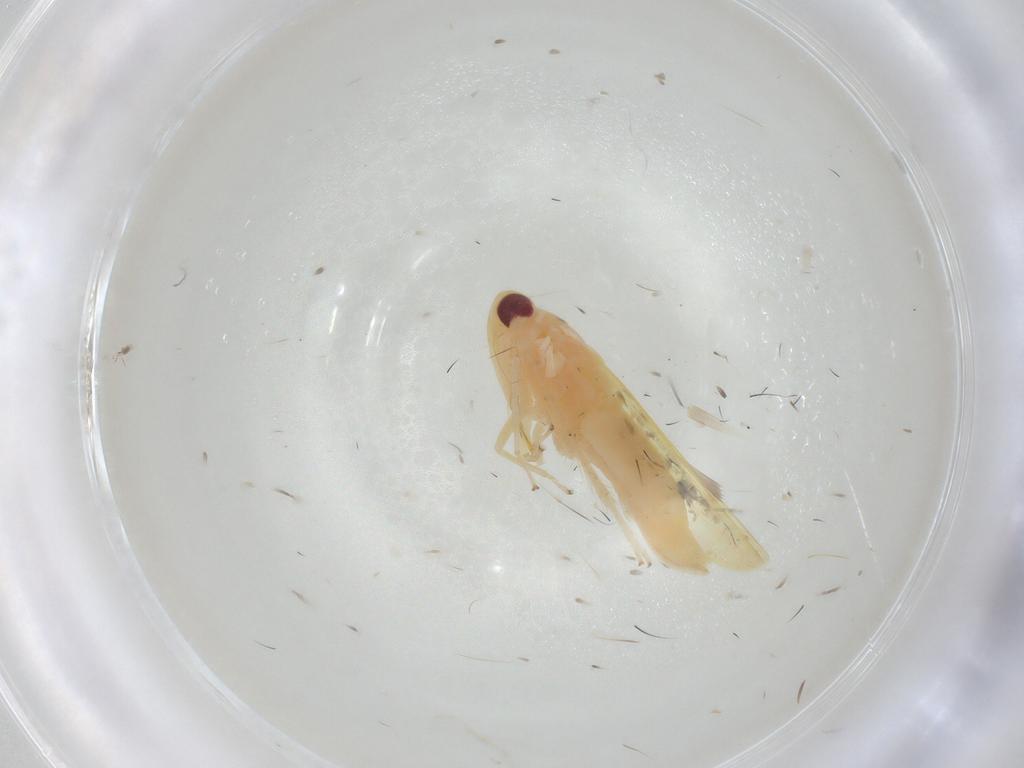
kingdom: Animalia
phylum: Arthropoda
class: Insecta
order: Hemiptera
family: Cicadellidae
